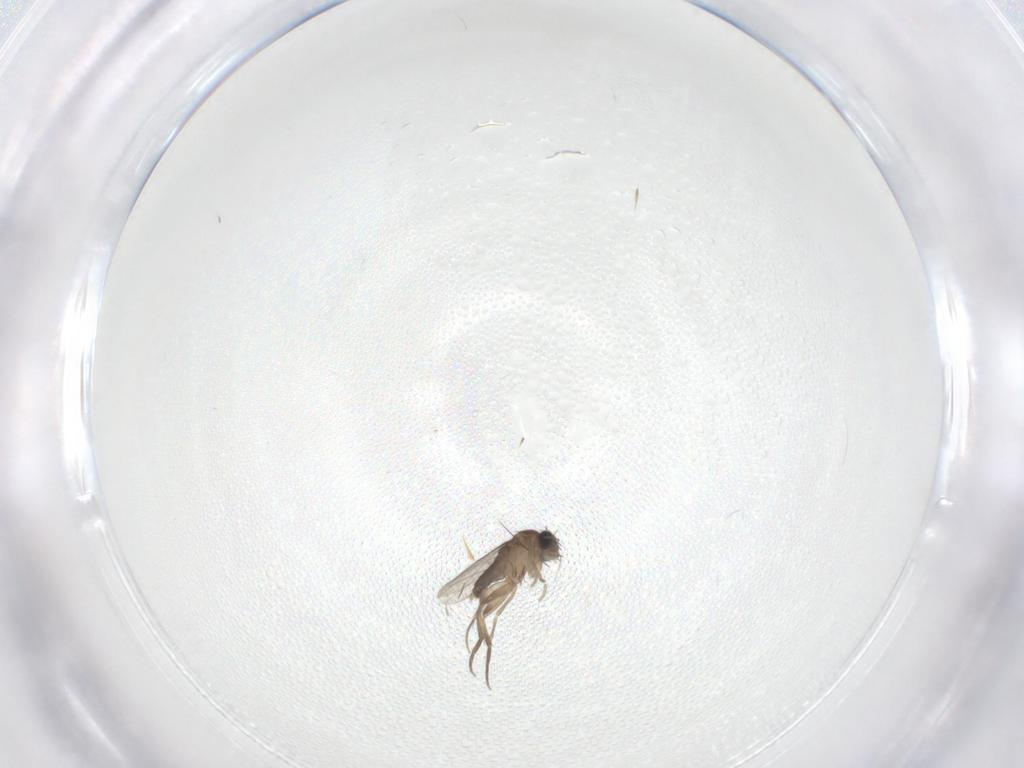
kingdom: Animalia
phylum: Arthropoda
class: Insecta
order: Diptera
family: Phoridae
